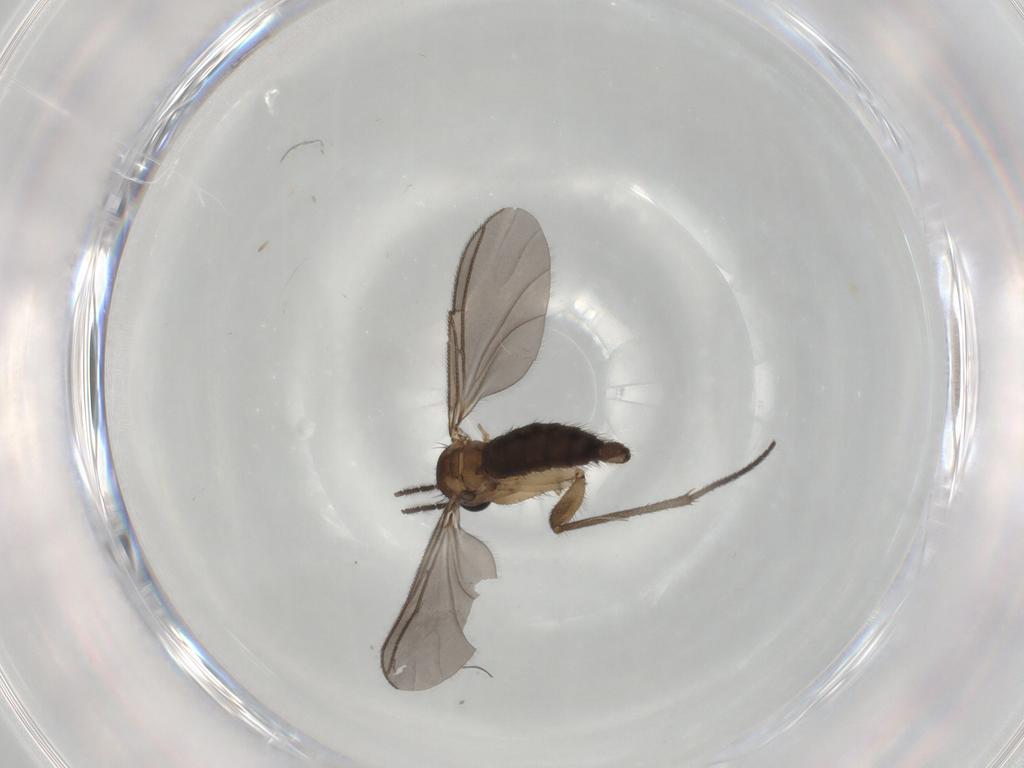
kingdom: Animalia
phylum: Arthropoda
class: Insecta
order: Diptera
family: Sciaridae
